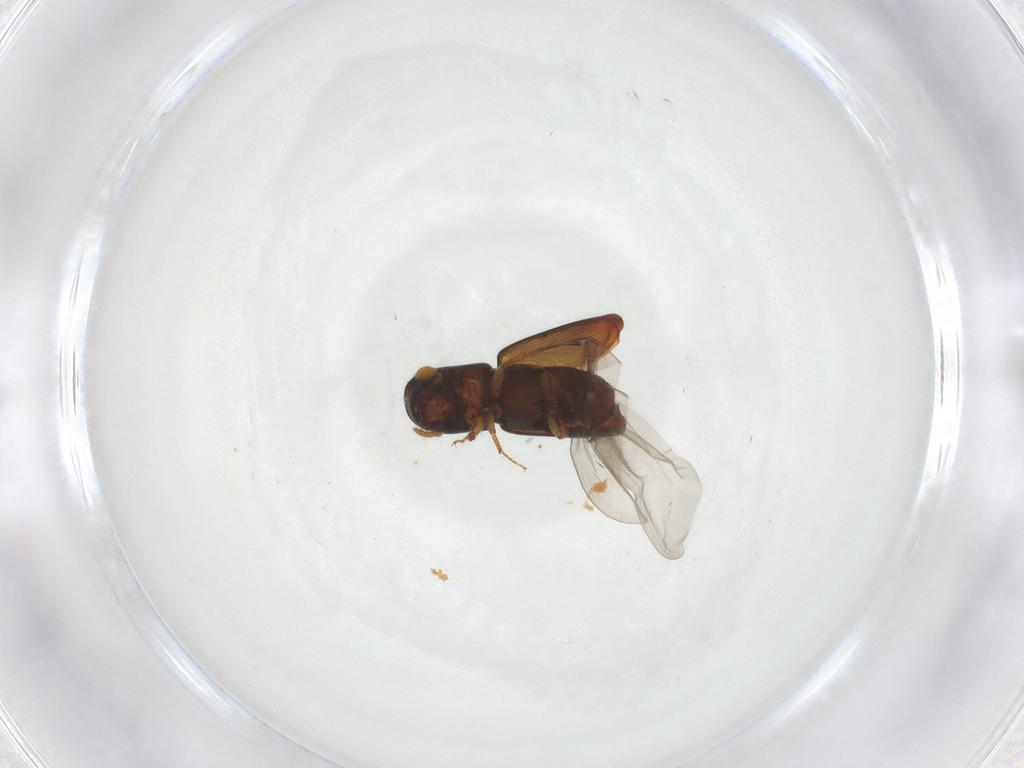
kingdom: Animalia
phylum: Arthropoda
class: Insecta
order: Coleoptera
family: Curculionidae
